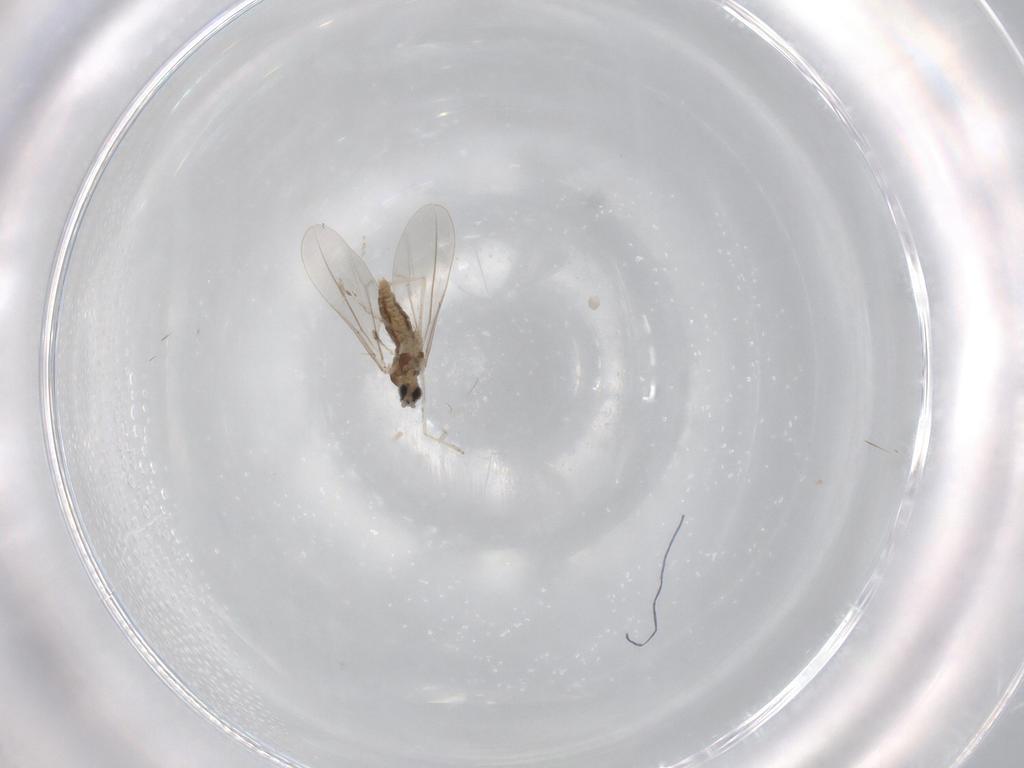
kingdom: Animalia
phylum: Arthropoda
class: Insecta
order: Diptera
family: Cecidomyiidae
